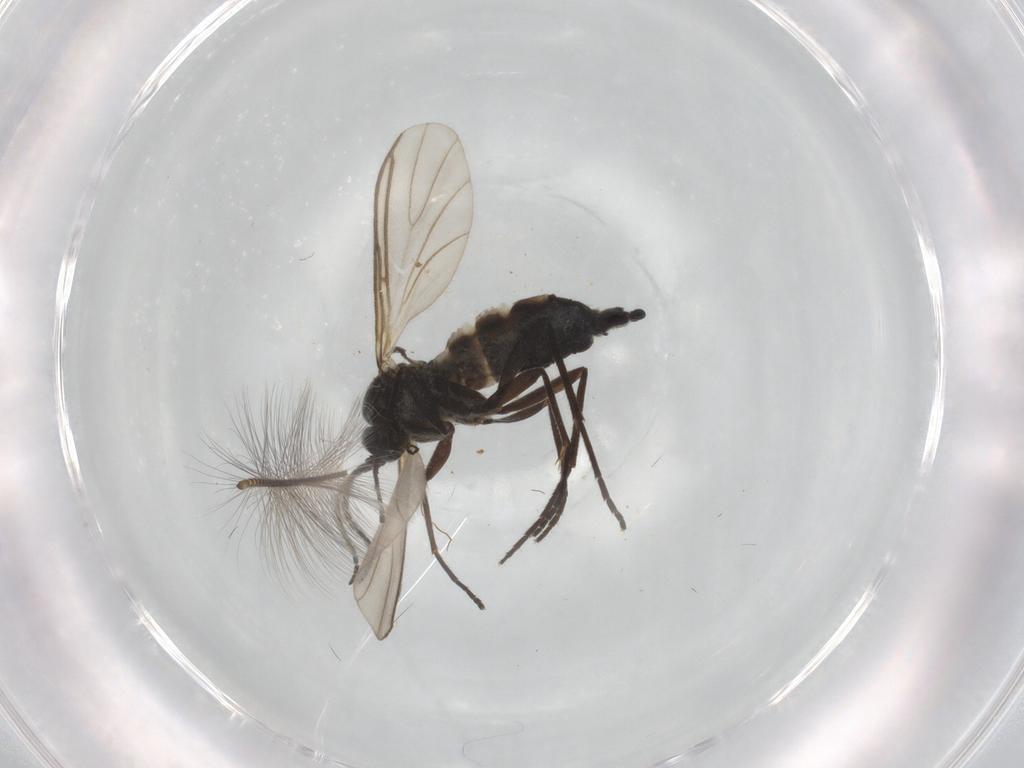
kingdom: Animalia
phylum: Arthropoda
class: Insecta
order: Diptera
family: Sciaridae
